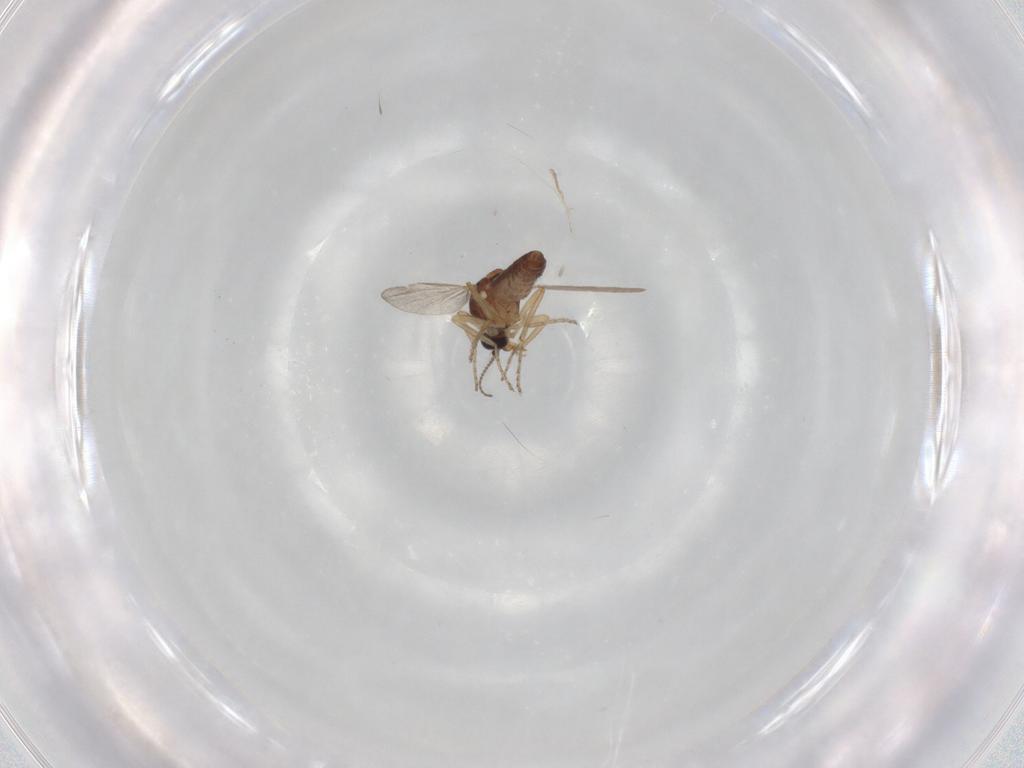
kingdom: Animalia
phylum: Arthropoda
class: Insecta
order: Diptera
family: Ceratopogonidae
